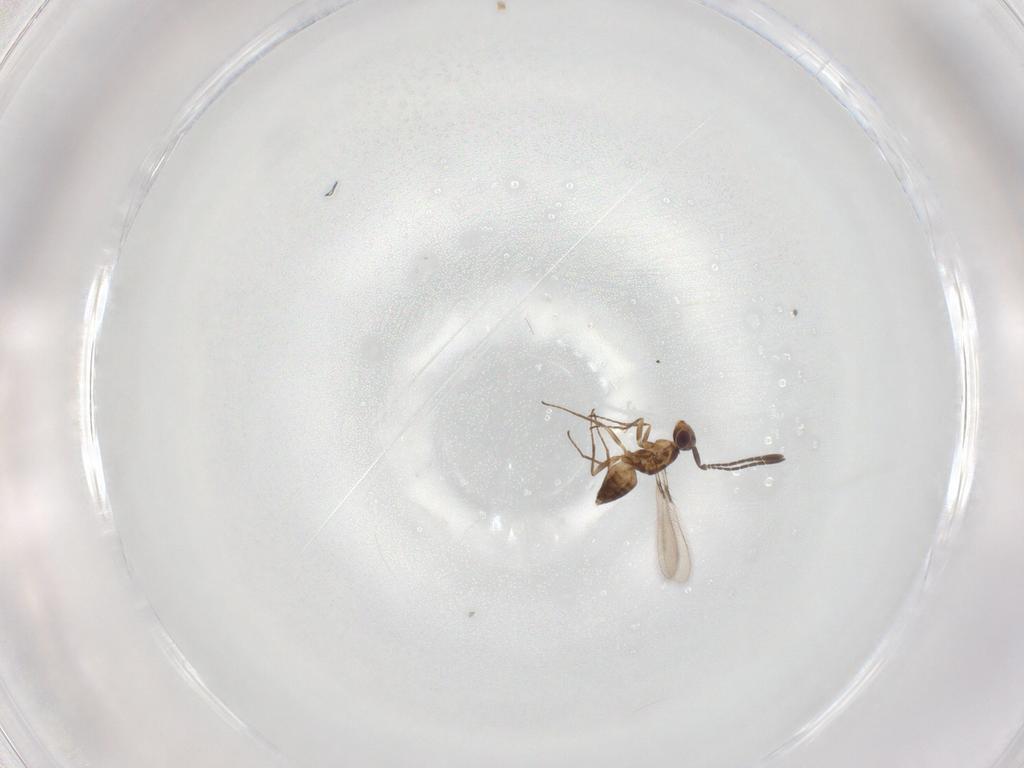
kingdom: Animalia
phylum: Arthropoda
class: Insecta
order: Hymenoptera
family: Mymaridae
